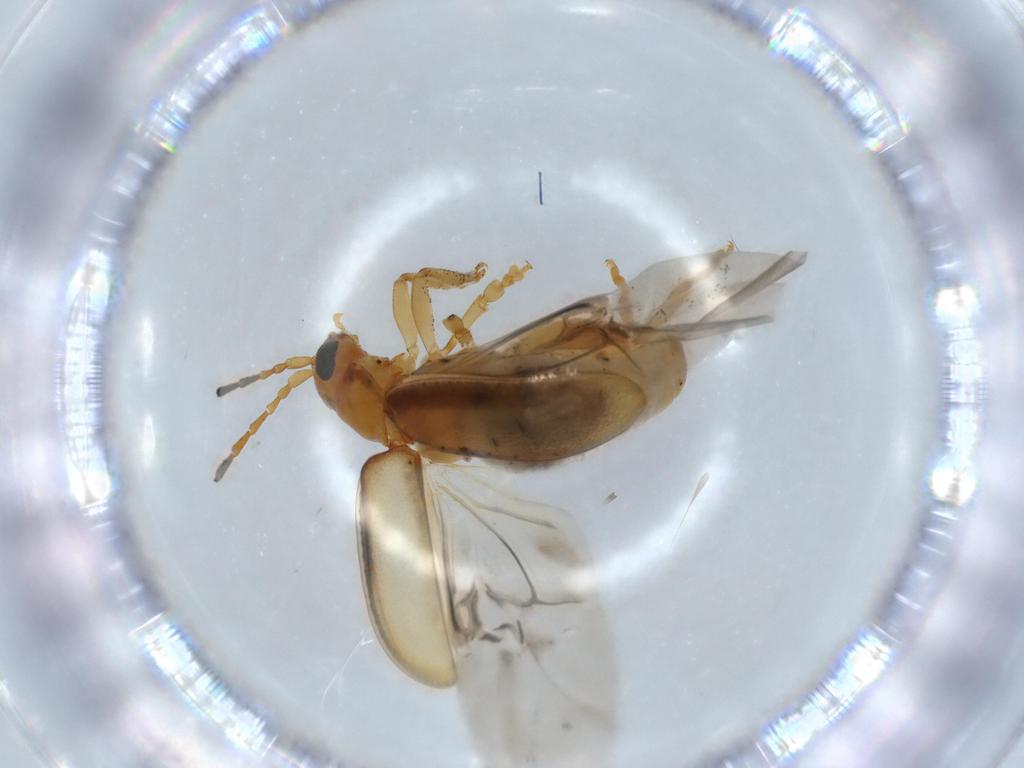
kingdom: Animalia
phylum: Arthropoda
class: Insecta
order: Coleoptera
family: Chrysomelidae
